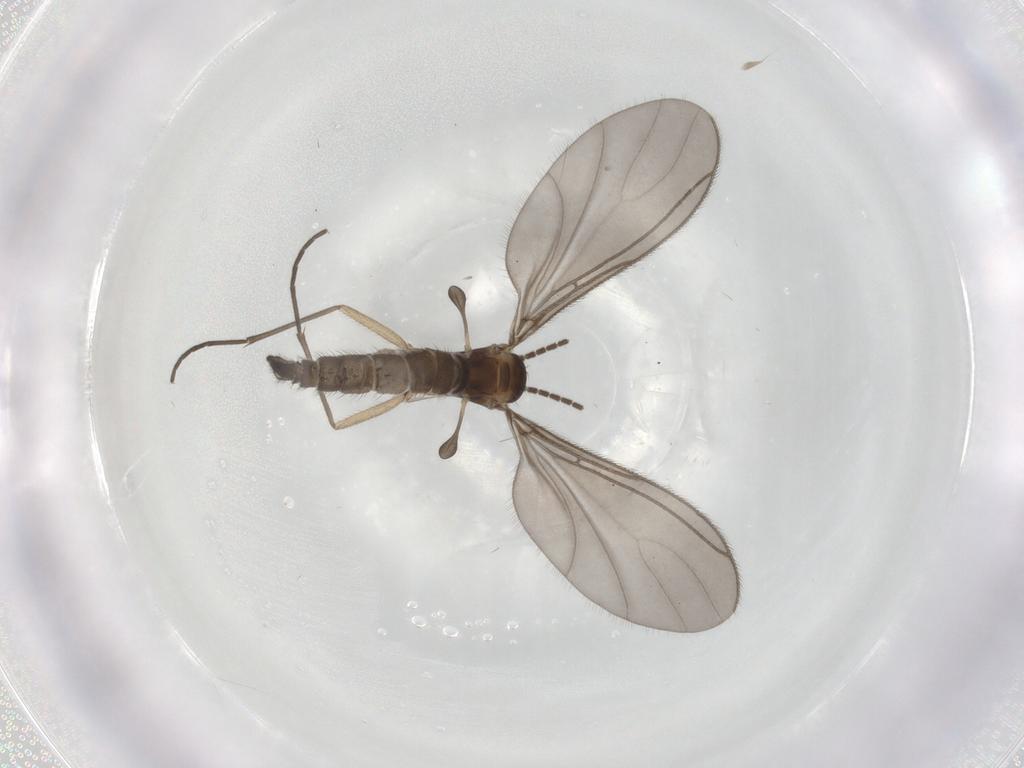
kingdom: Animalia
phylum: Arthropoda
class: Insecta
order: Diptera
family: Sciaridae
